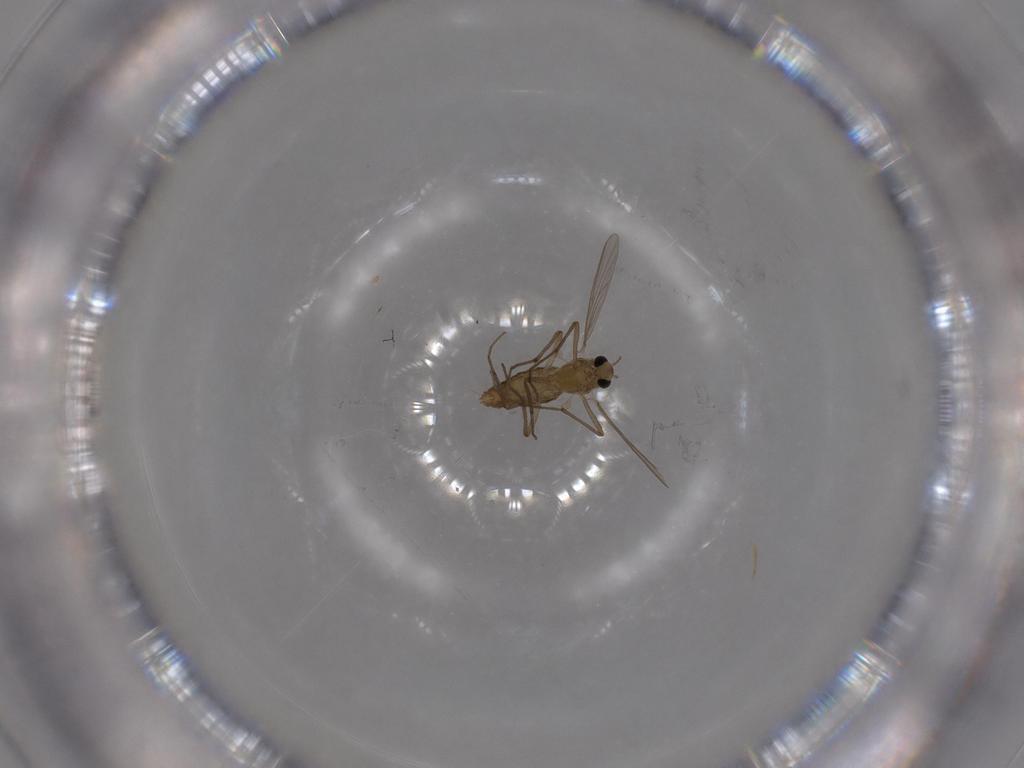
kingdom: Animalia
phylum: Arthropoda
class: Insecta
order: Diptera
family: Chironomidae
